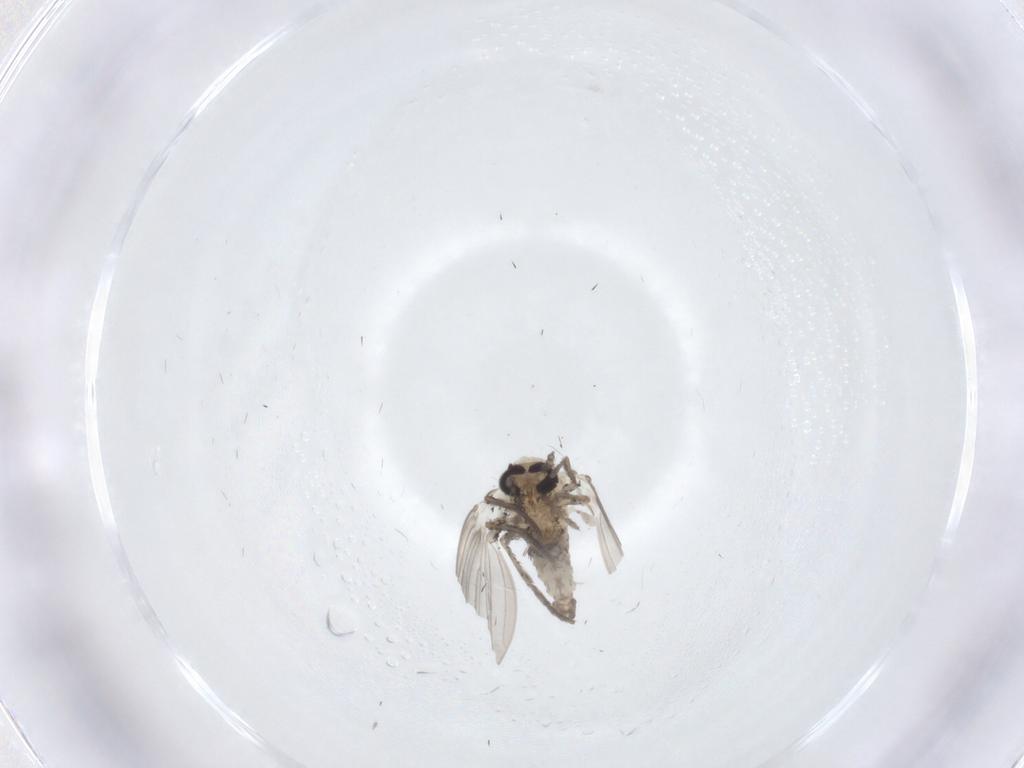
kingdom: Animalia
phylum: Arthropoda
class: Insecta
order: Diptera
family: Psychodidae
